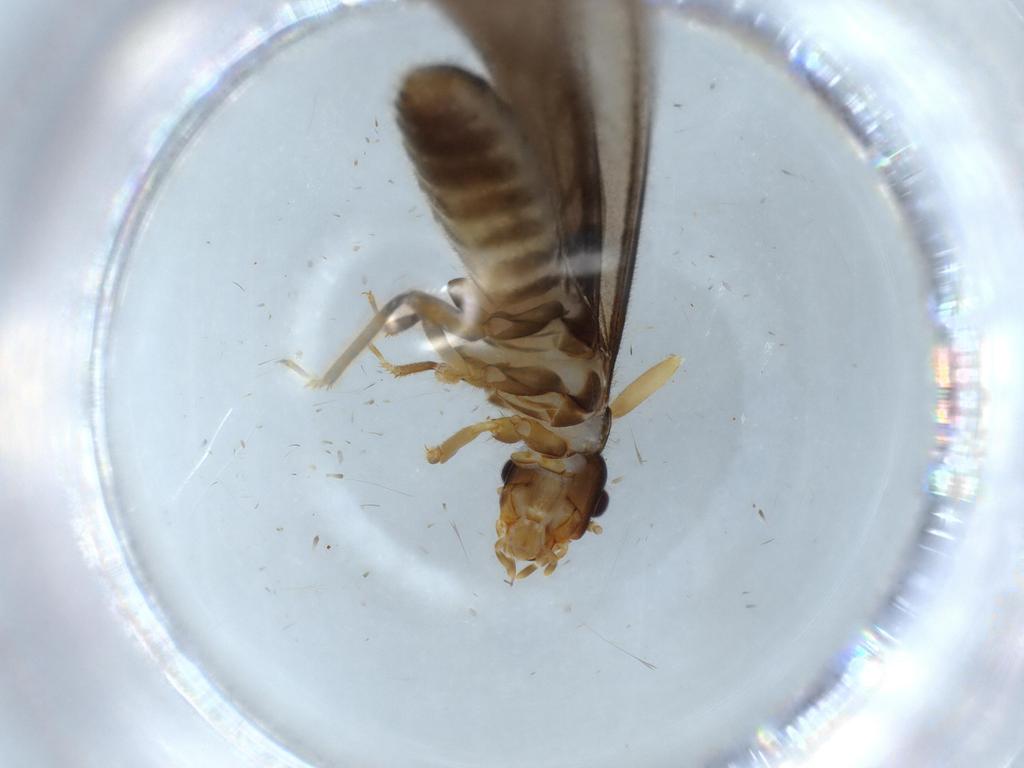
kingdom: Animalia
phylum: Arthropoda
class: Insecta
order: Blattodea
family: Termitidae
